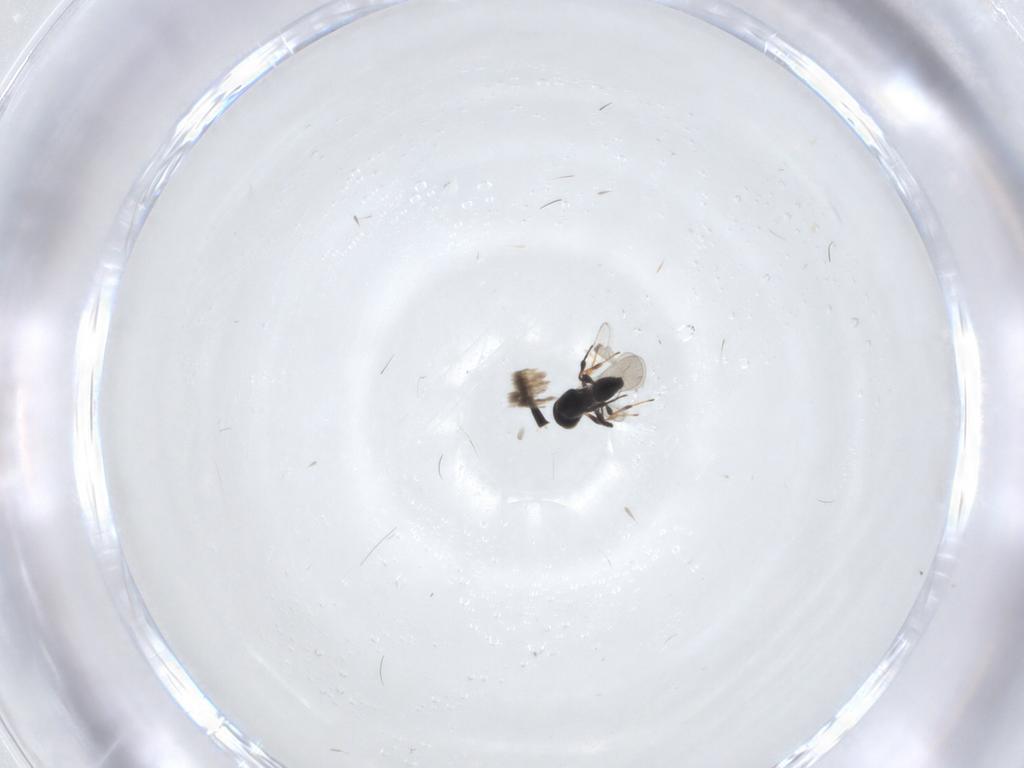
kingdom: Animalia
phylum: Arthropoda
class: Insecta
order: Hymenoptera
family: Platygastridae
